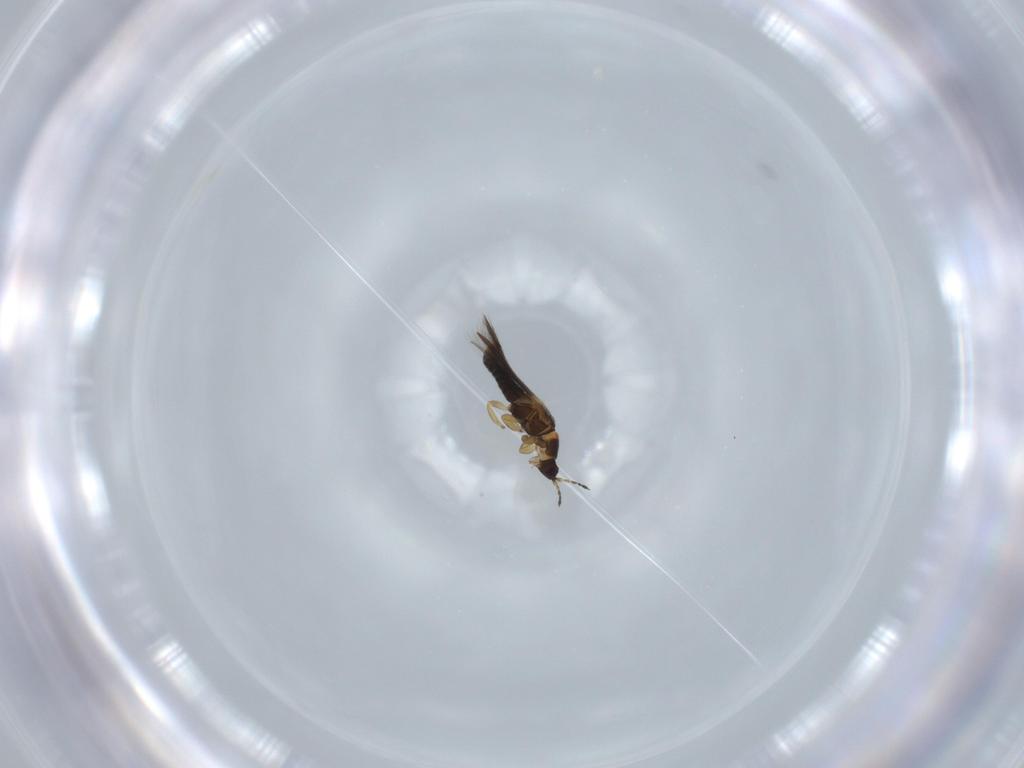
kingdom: Animalia
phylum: Arthropoda
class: Insecta
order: Thysanoptera
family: Thripidae
